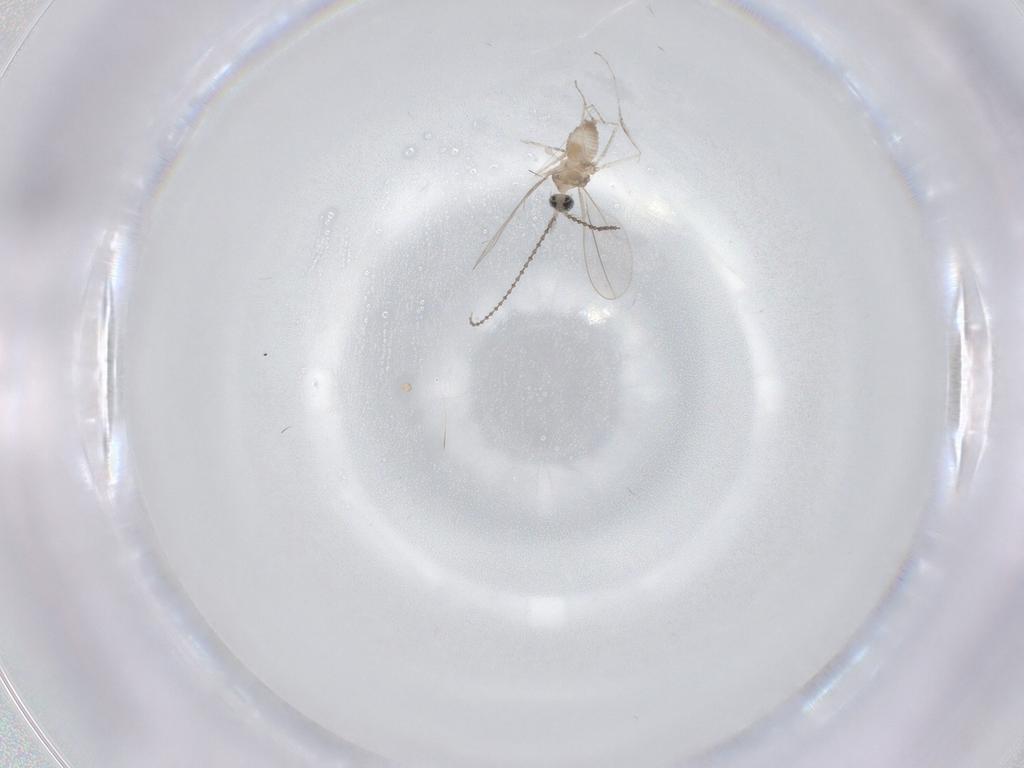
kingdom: Animalia
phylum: Arthropoda
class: Insecta
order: Diptera
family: Cecidomyiidae
